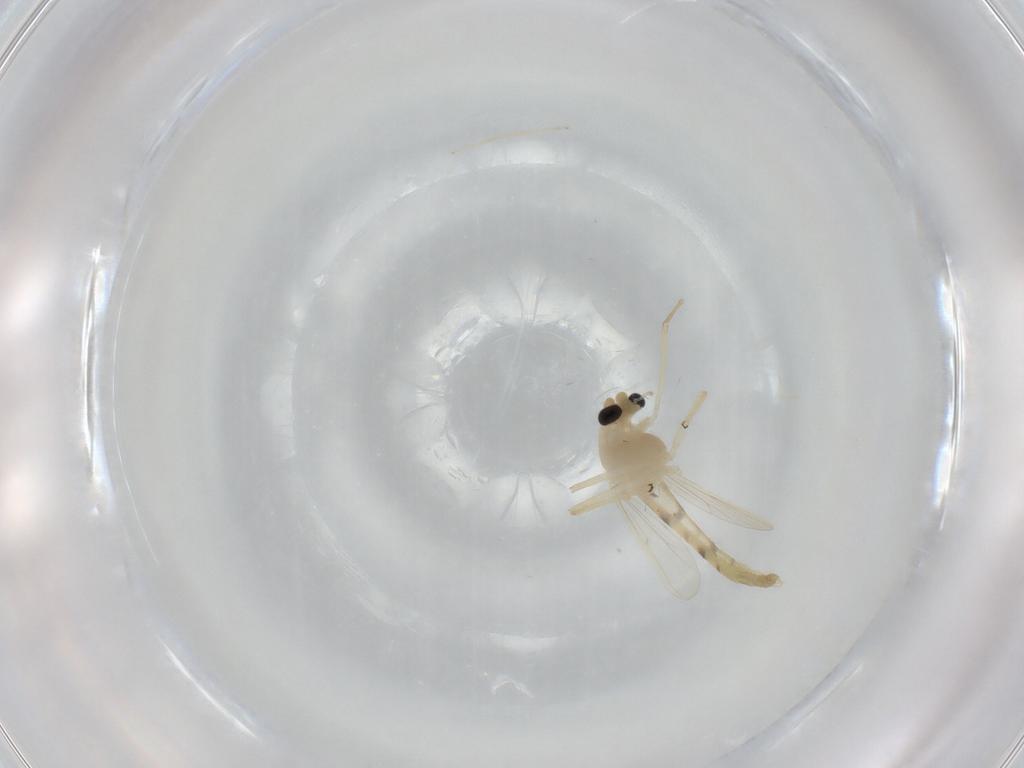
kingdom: Animalia
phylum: Arthropoda
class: Insecta
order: Diptera
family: Chironomidae
